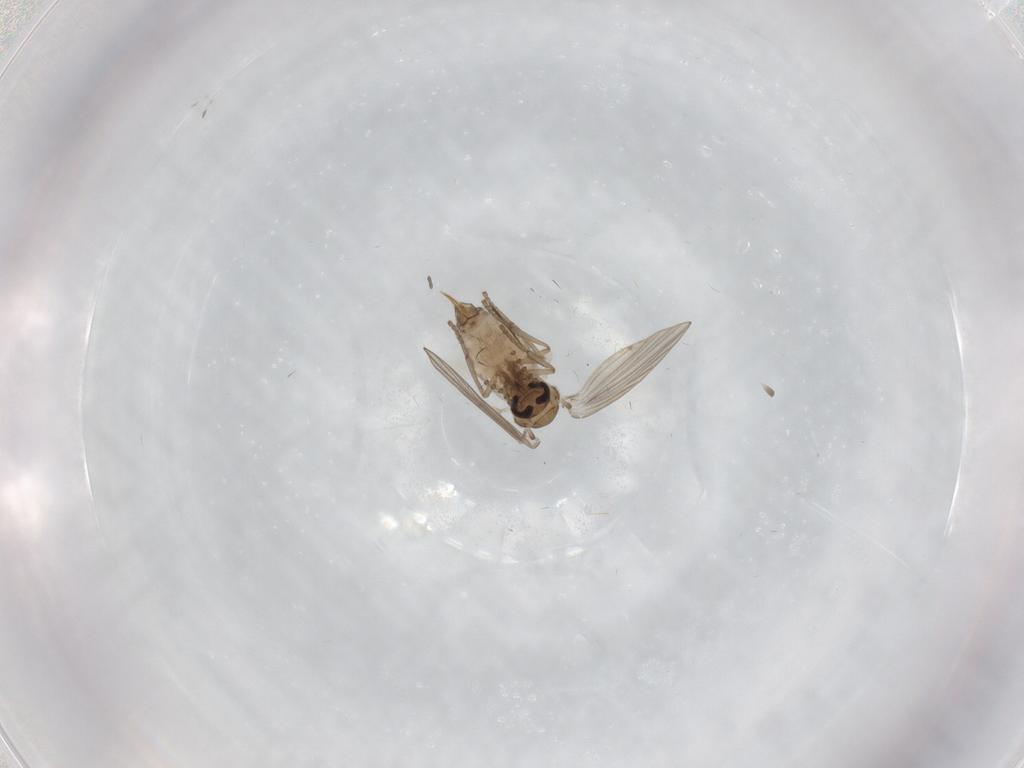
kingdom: Animalia
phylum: Arthropoda
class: Insecta
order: Diptera
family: Psychodidae
